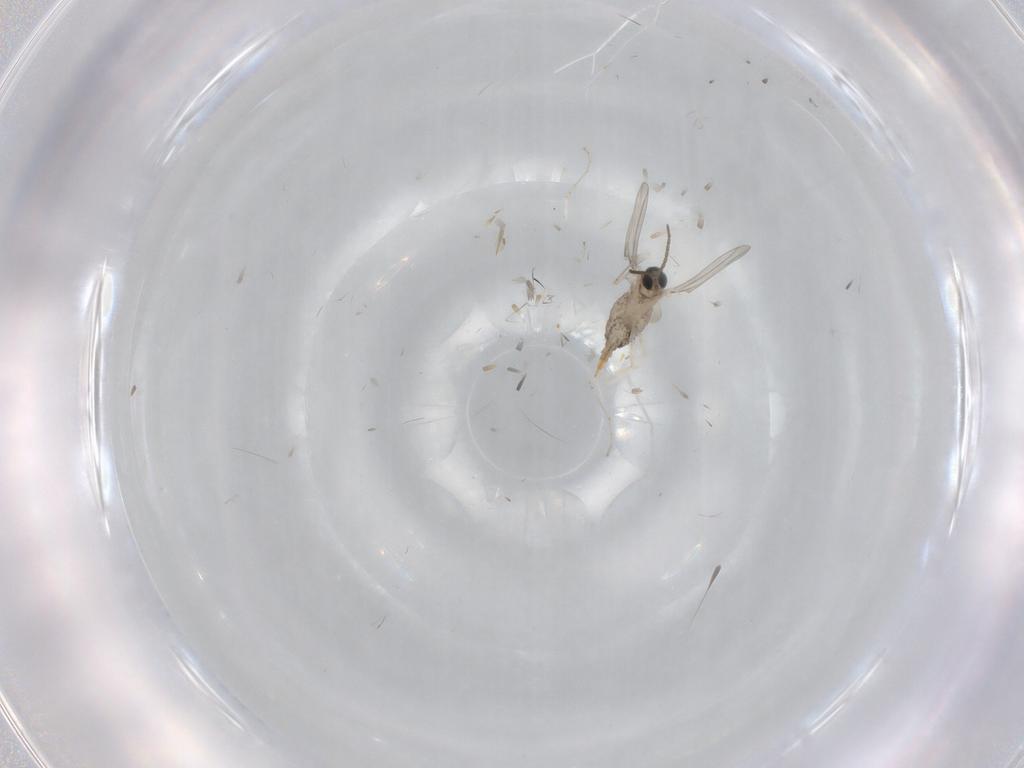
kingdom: Animalia
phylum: Arthropoda
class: Insecta
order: Diptera
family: Cecidomyiidae
